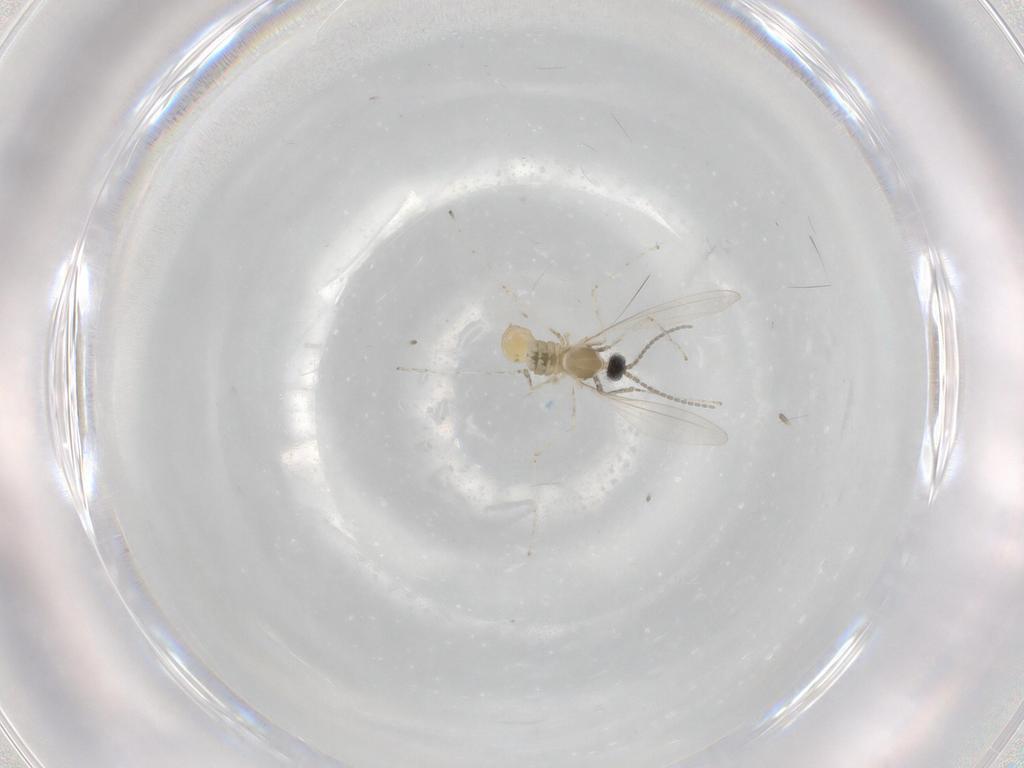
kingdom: Animalia
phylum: Arthropoda
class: Insecta
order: Diptera
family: Cecidomyiidae
